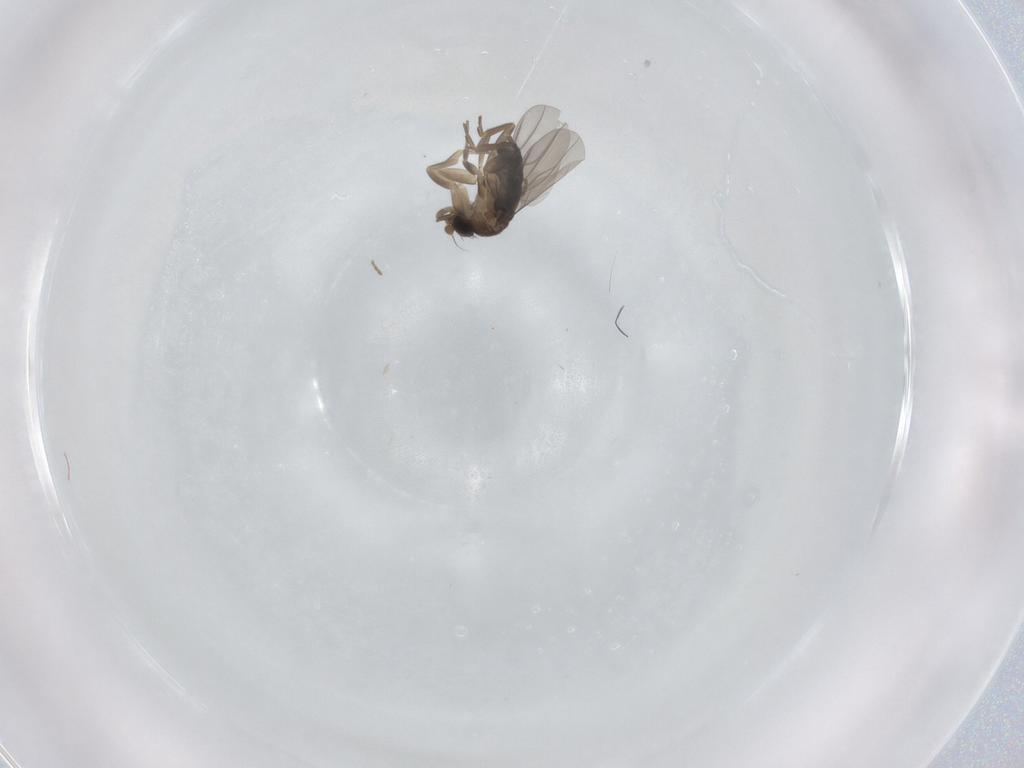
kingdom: Animalia
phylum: Arthropoda
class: Insecta
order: Diptera
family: Phoridae
